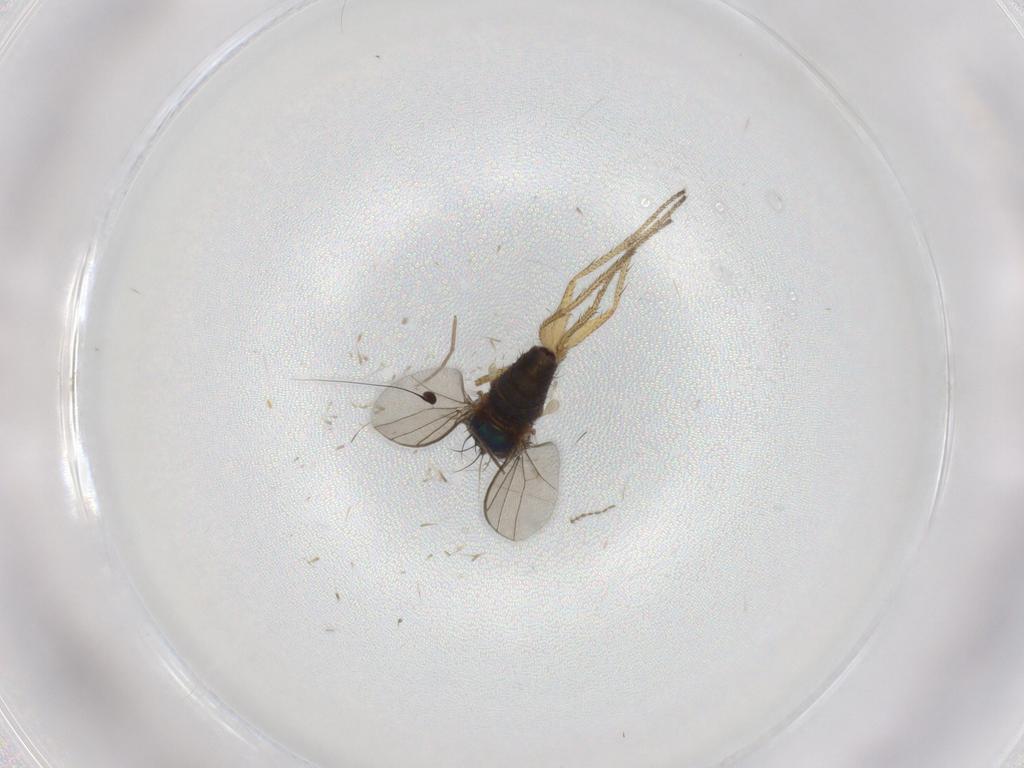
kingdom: Animalia
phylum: Arthropoda
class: Insecta
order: Diptera
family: Chironomidae
